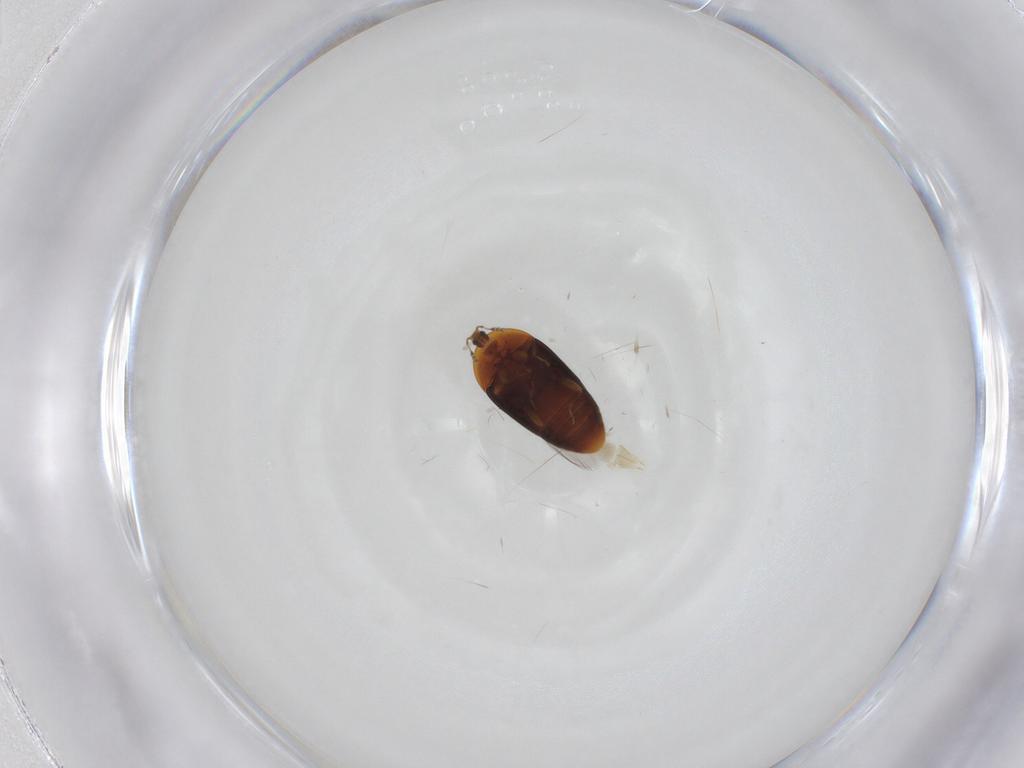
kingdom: Animalia
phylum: Arthropoda
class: Insecta
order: Coleoptera
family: Corylophidae
